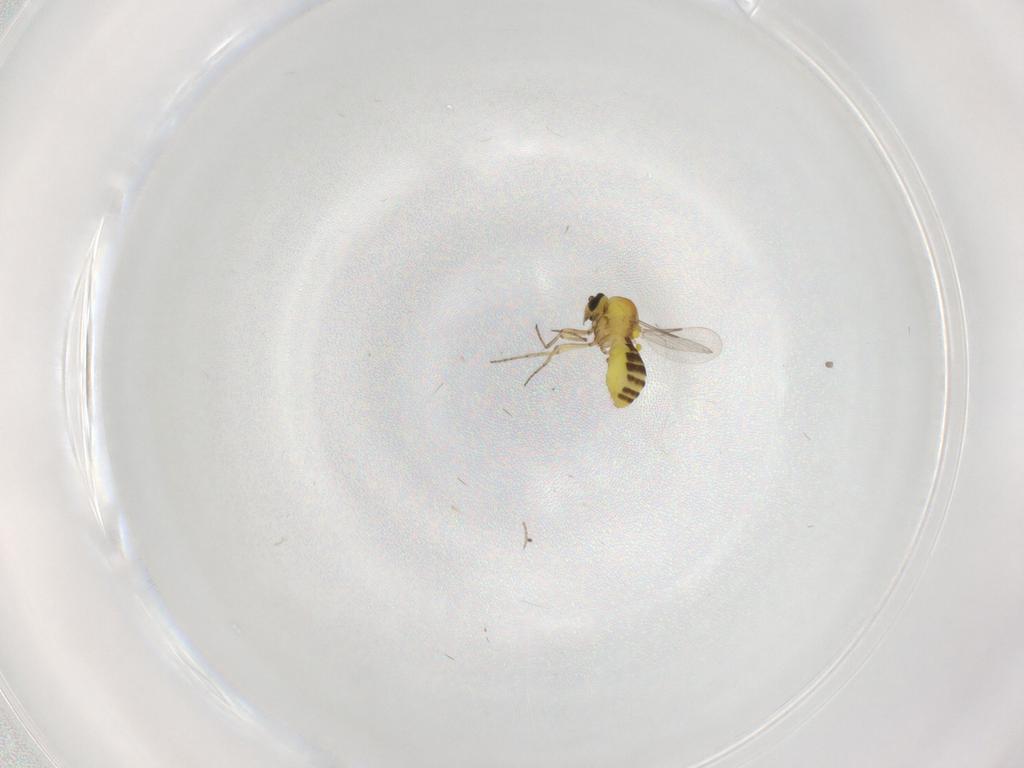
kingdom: Animalia
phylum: Arthropoda
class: Insecta
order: Diptera
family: Ceratopogonidae
